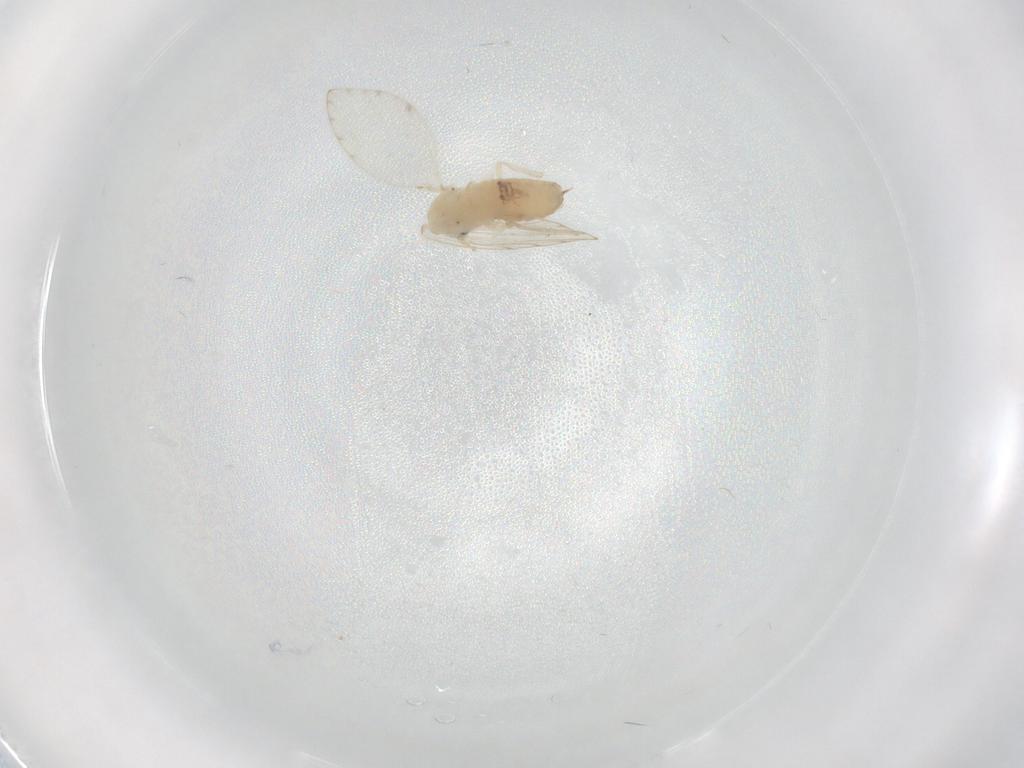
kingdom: Animalia
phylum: Arthropoda
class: Insecta
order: Diptera
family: Psychodidae
